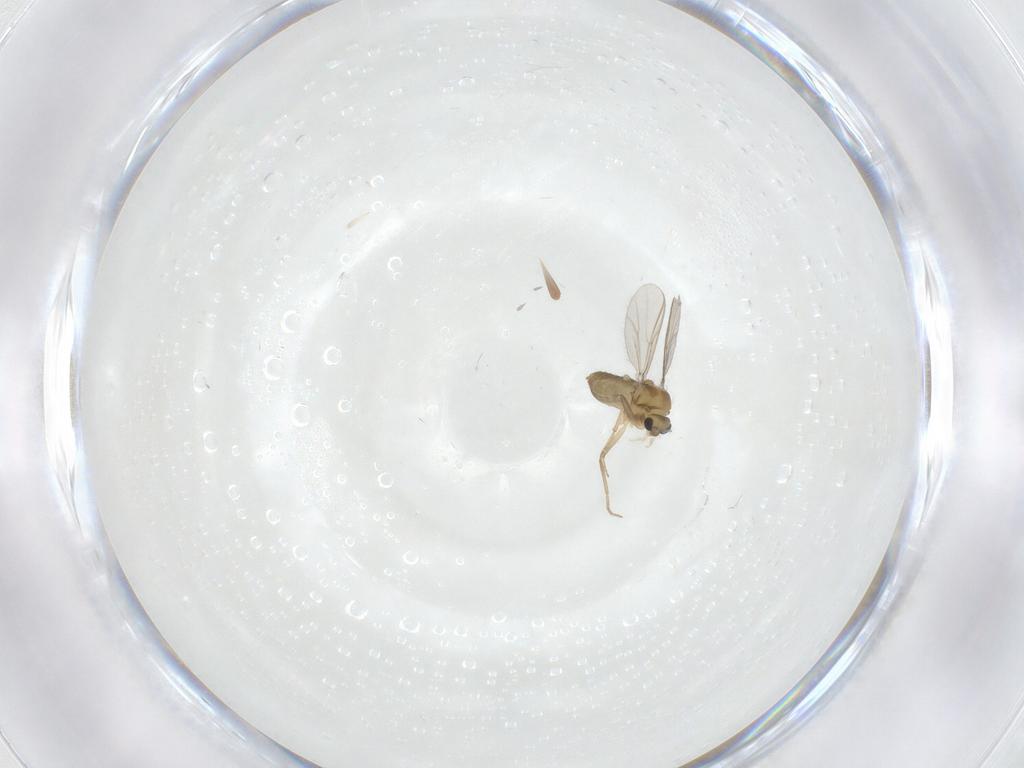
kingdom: Animalia
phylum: Arthropoda
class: Insecta
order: Diptera
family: Chironomidae
